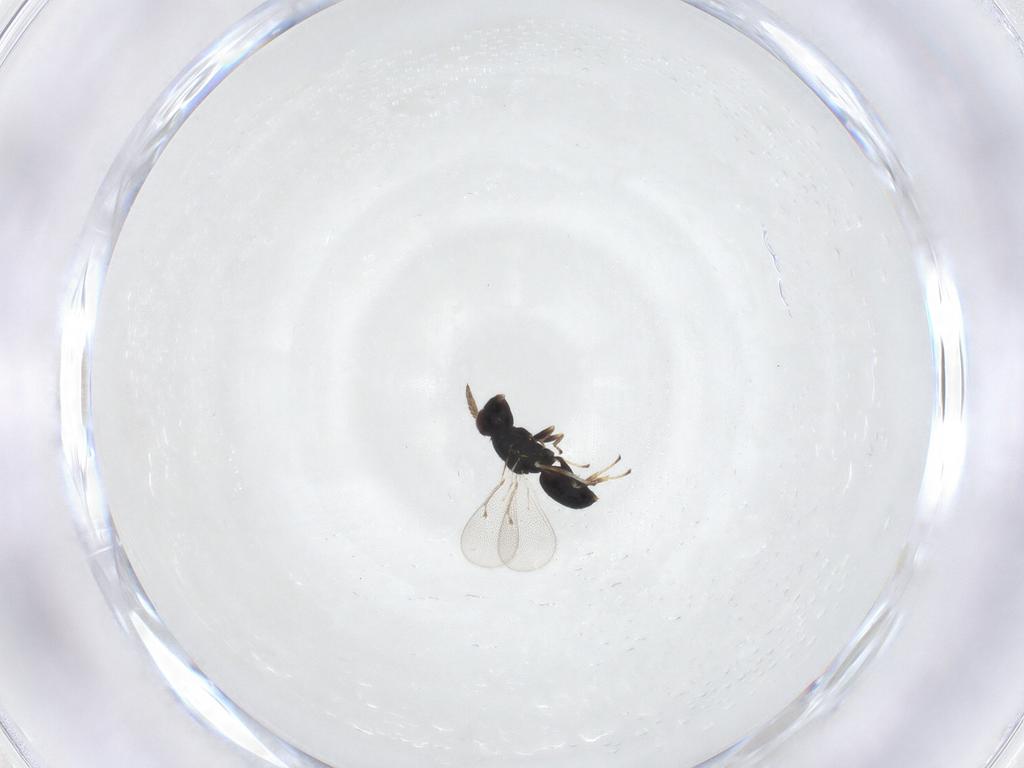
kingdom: Animalia
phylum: Arthropoda
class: Insecta
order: Hymenoptera
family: Eulophidae
